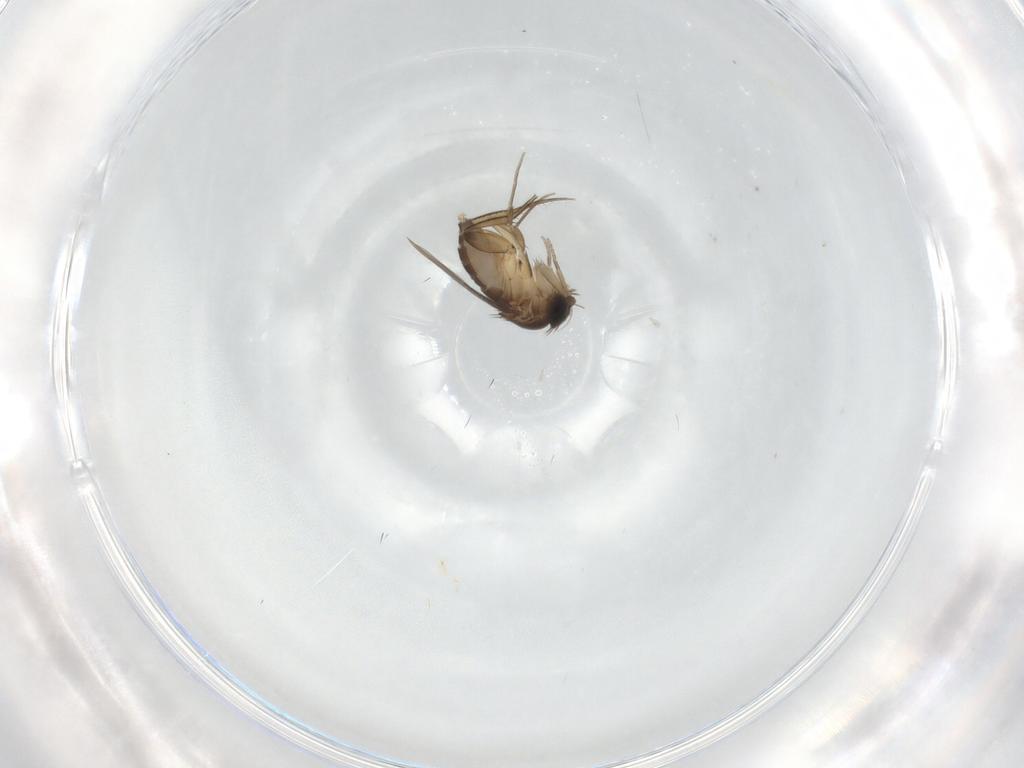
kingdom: Animalia
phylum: Arthropoda
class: Insecta
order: Diptera
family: Phoridae
